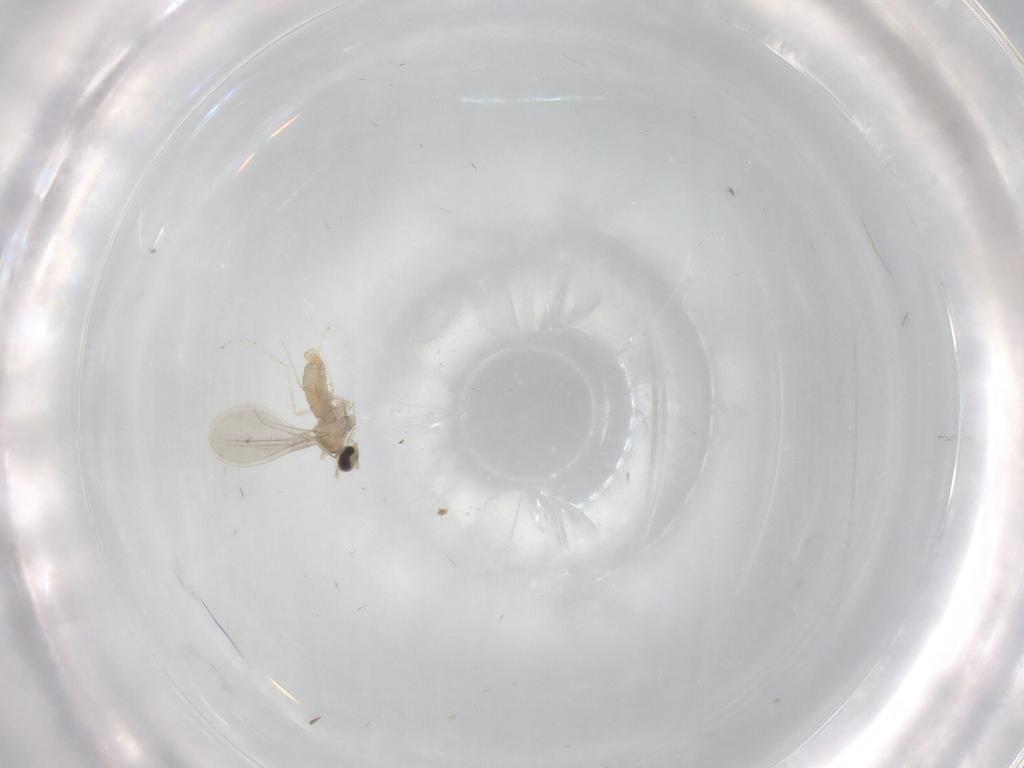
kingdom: Animalia
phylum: Arthropoda
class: Insecta
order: Diptera
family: Cecidomyiidae
